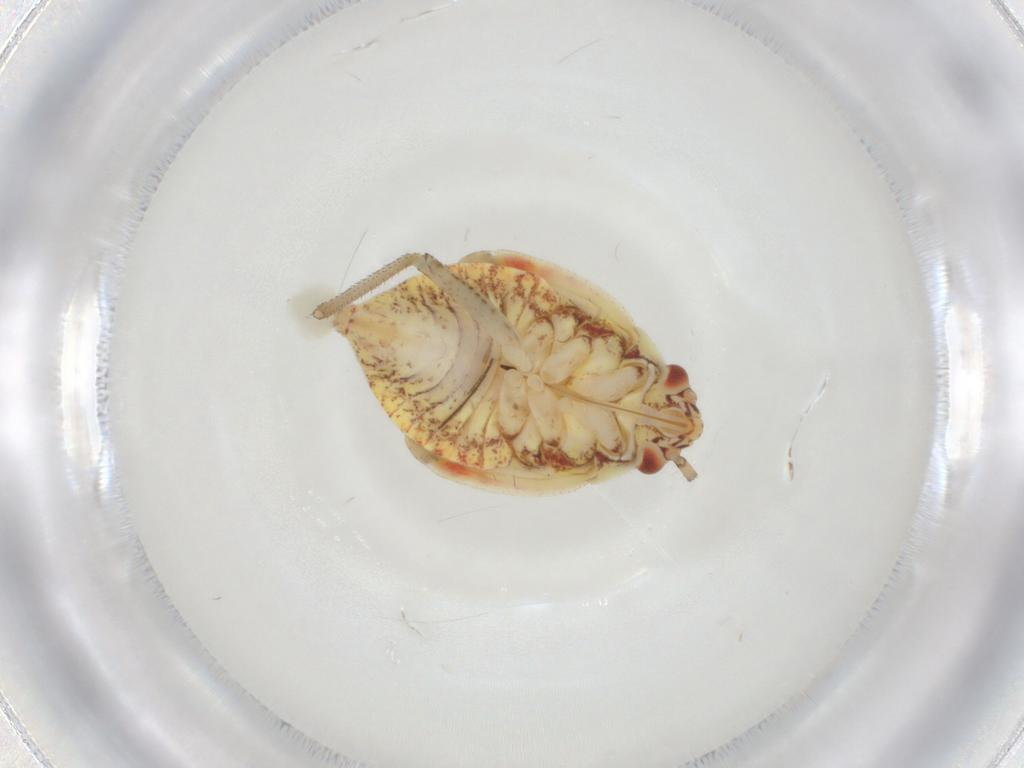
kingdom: Animalia
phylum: Arthropoda
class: Insecta
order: Hemiptera
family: Miridae
